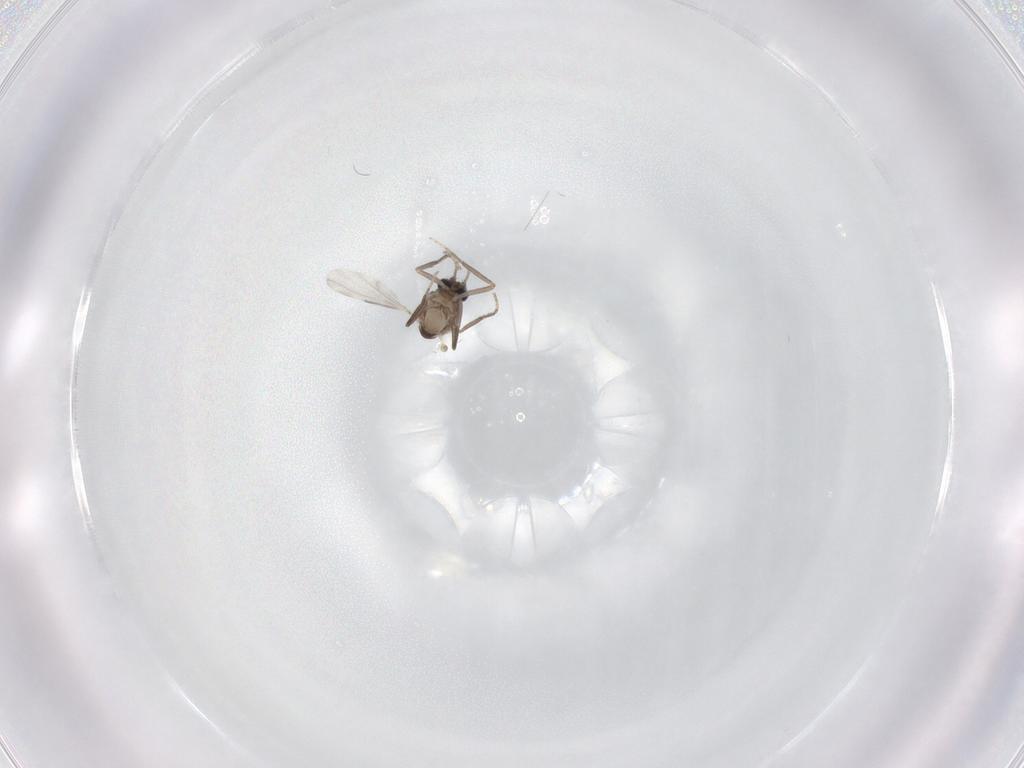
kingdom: Animalia
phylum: Arthropoda
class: Insecta
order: Diptera
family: Ceratopogonidae
